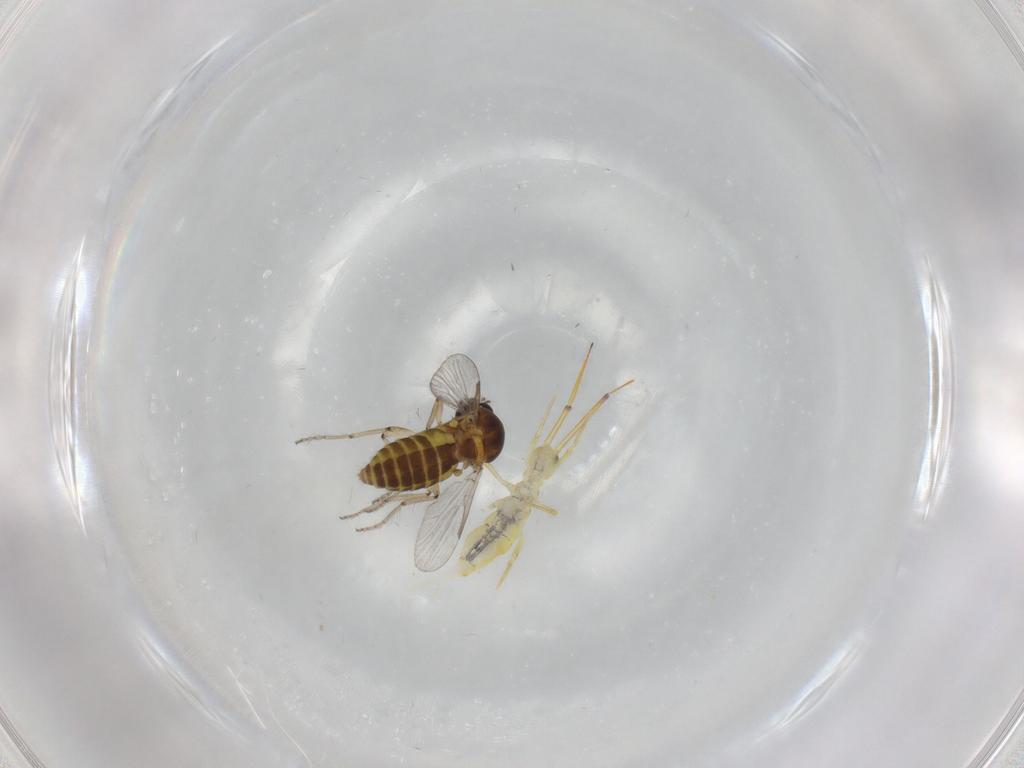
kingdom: Animalia
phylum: Arthropoda
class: Insecta
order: Diptera
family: Ceratopogonidae
